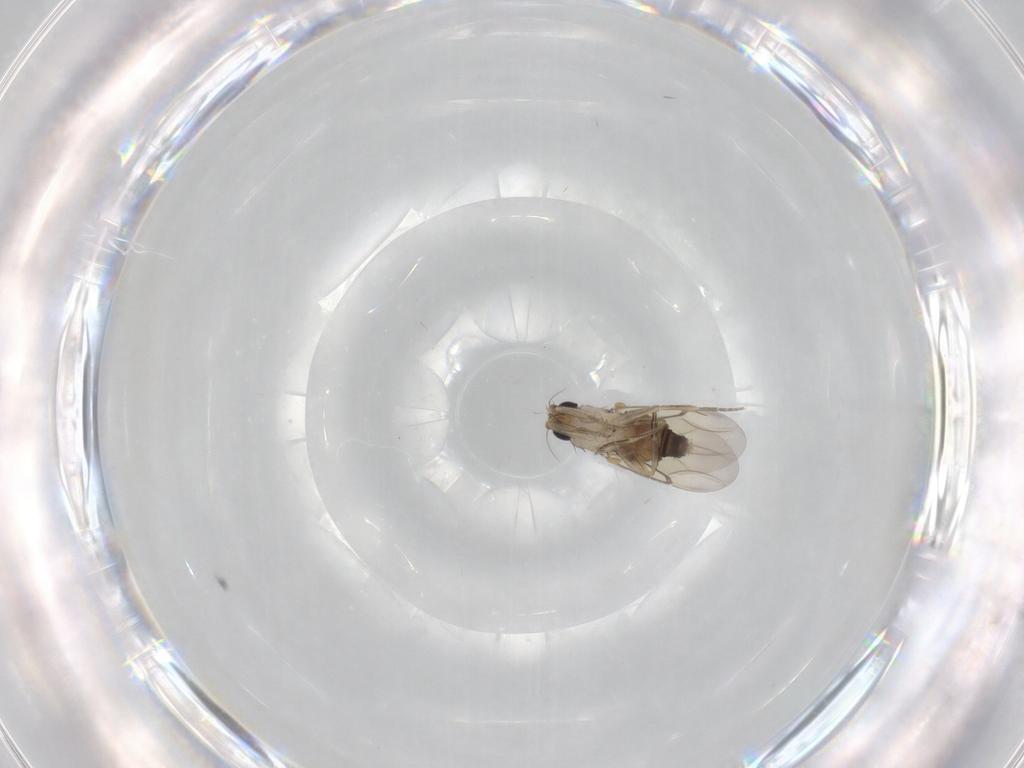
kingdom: Animalia
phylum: Arthropoda
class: Insecta
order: Diptera
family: Phoridae
